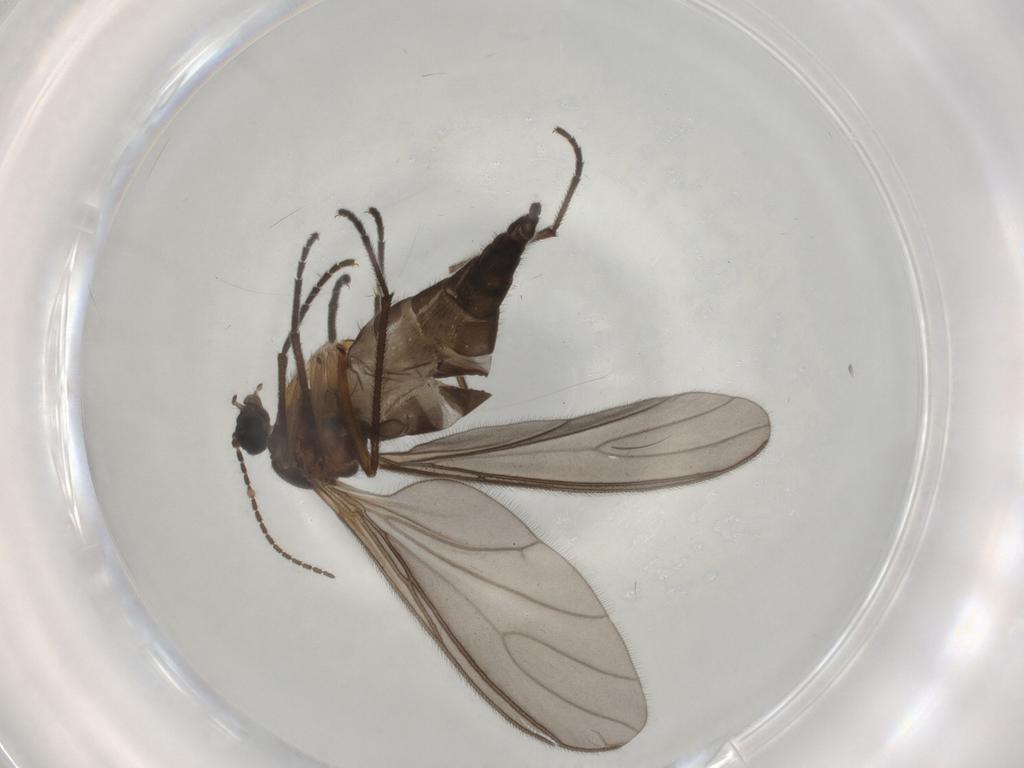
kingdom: Animalia
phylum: Arthropoda
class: Insecta
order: Diptera
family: Sciaridae
